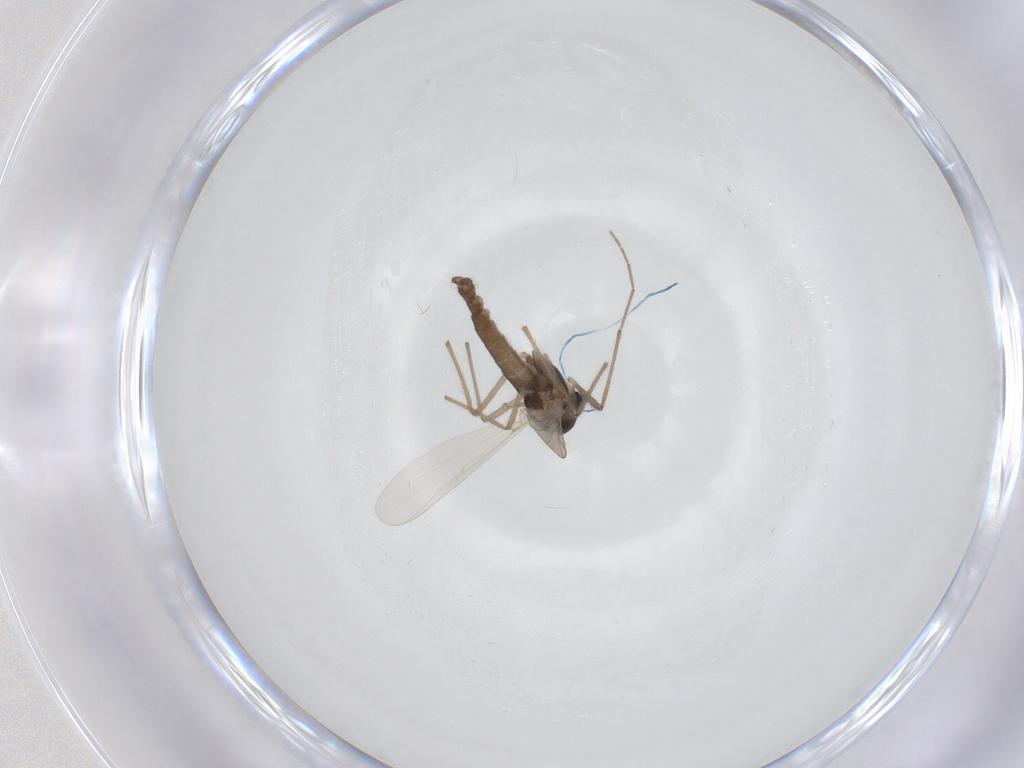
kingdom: Animalia
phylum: Arthropoda
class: Insecta
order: Diptera
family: Chironomidae
